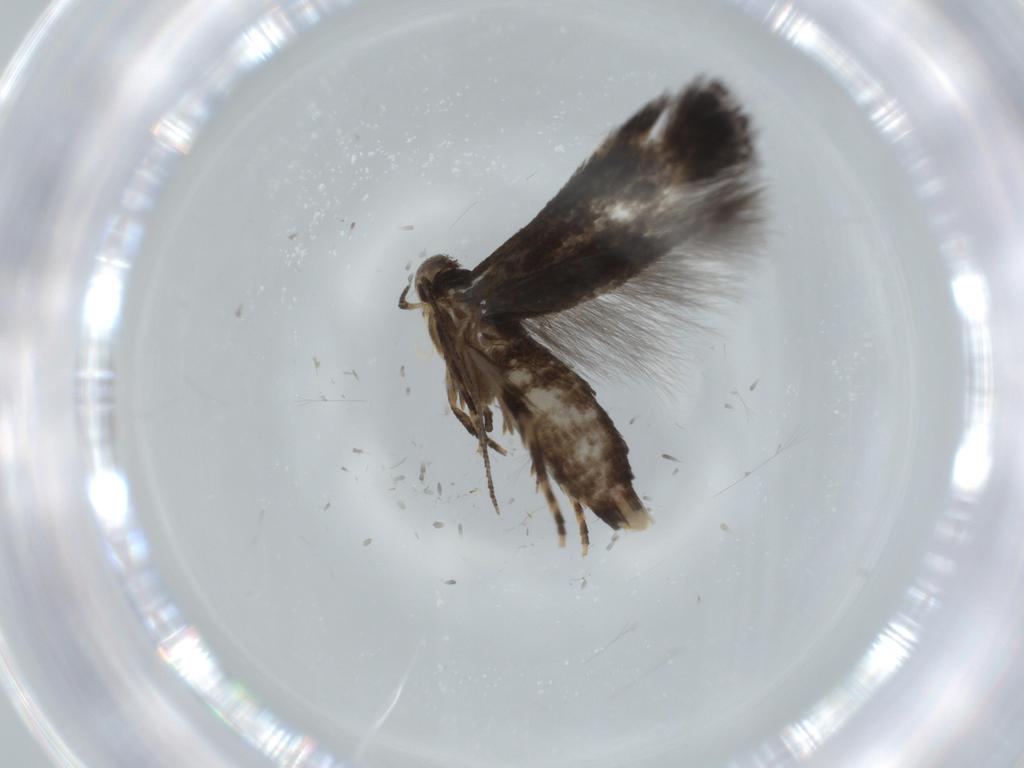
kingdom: Animalia
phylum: Arthropoda
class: Insecta
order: Lepidoptera
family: Gelechiidae
